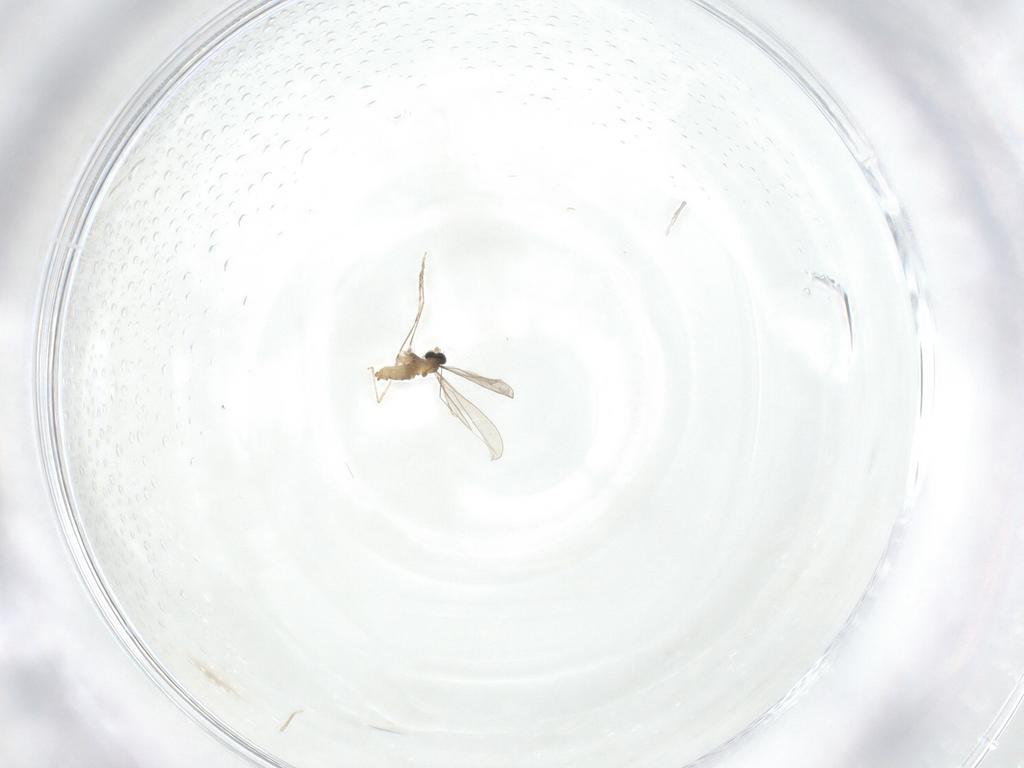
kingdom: Animalia
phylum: Arthropoda
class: Insecta
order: Diptera
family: Cecidomyiidae
